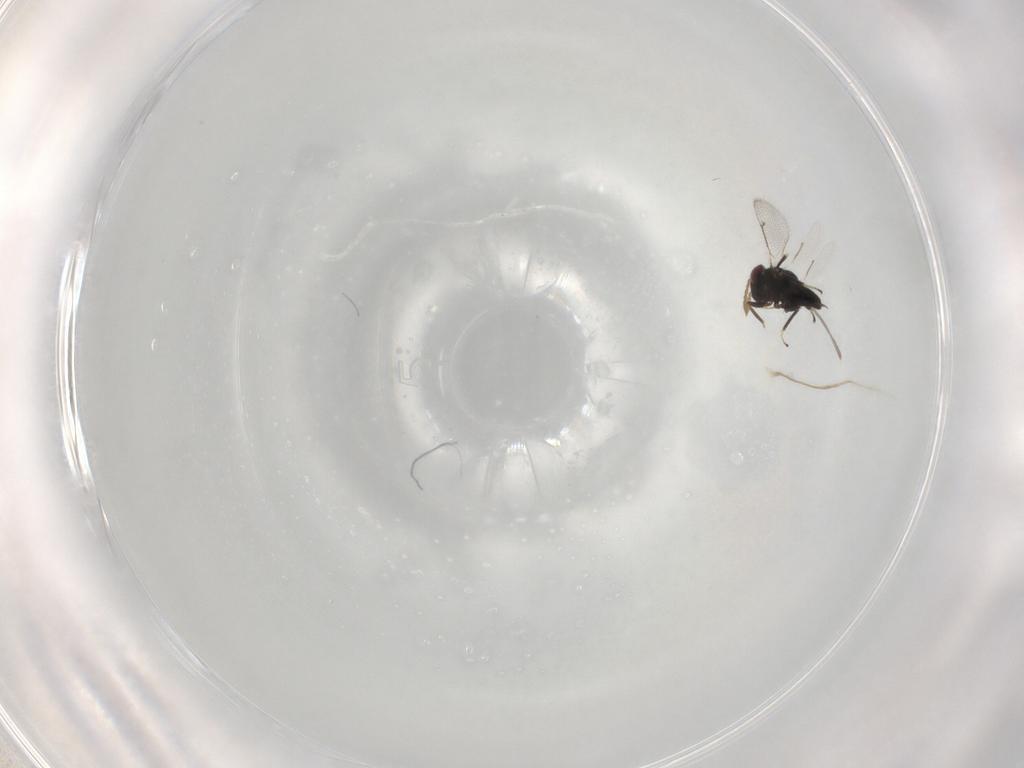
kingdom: Animalia
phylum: Arthropoda
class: Insecta
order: Hymenoptera
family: Eulophidae
